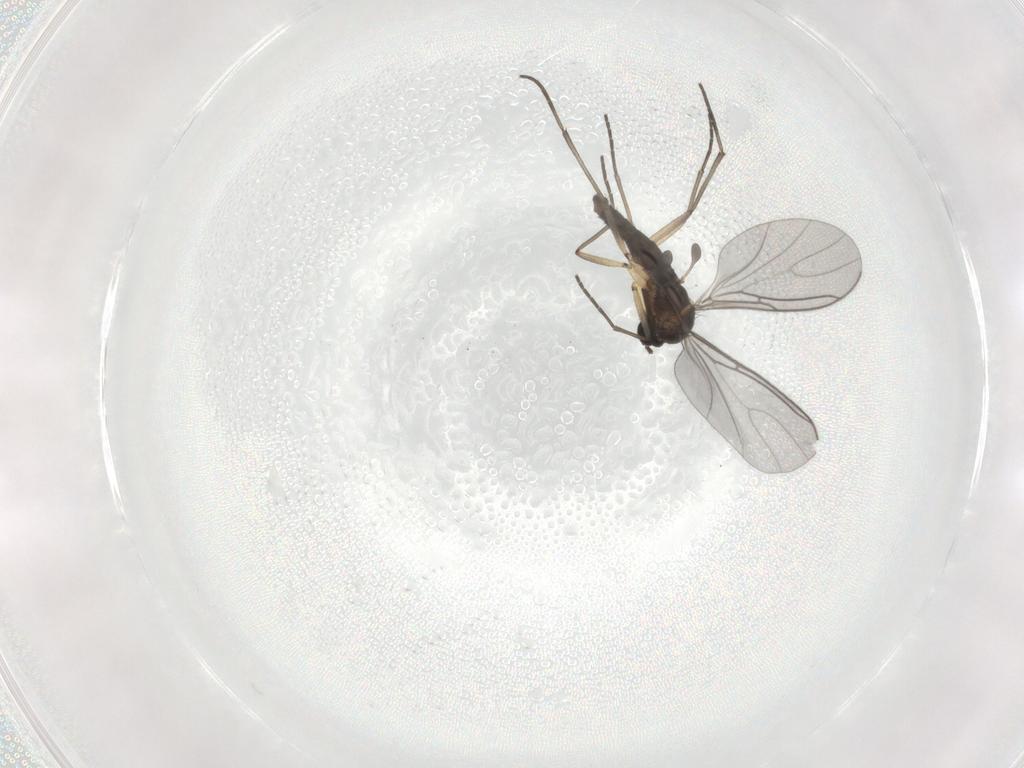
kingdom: Animalia
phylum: Arthropoda
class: Insecta
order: Diptera
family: Sciaridae
